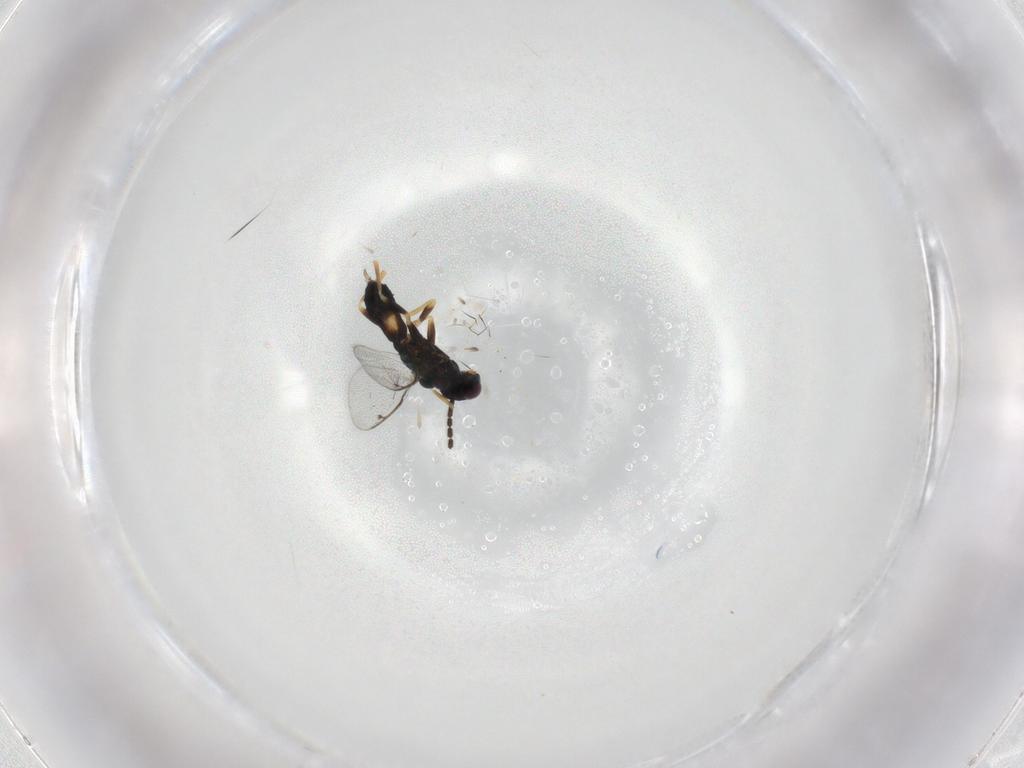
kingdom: Animalia
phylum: Arthropoda
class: Insecta
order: Hymenoptera
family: Eulophidae
